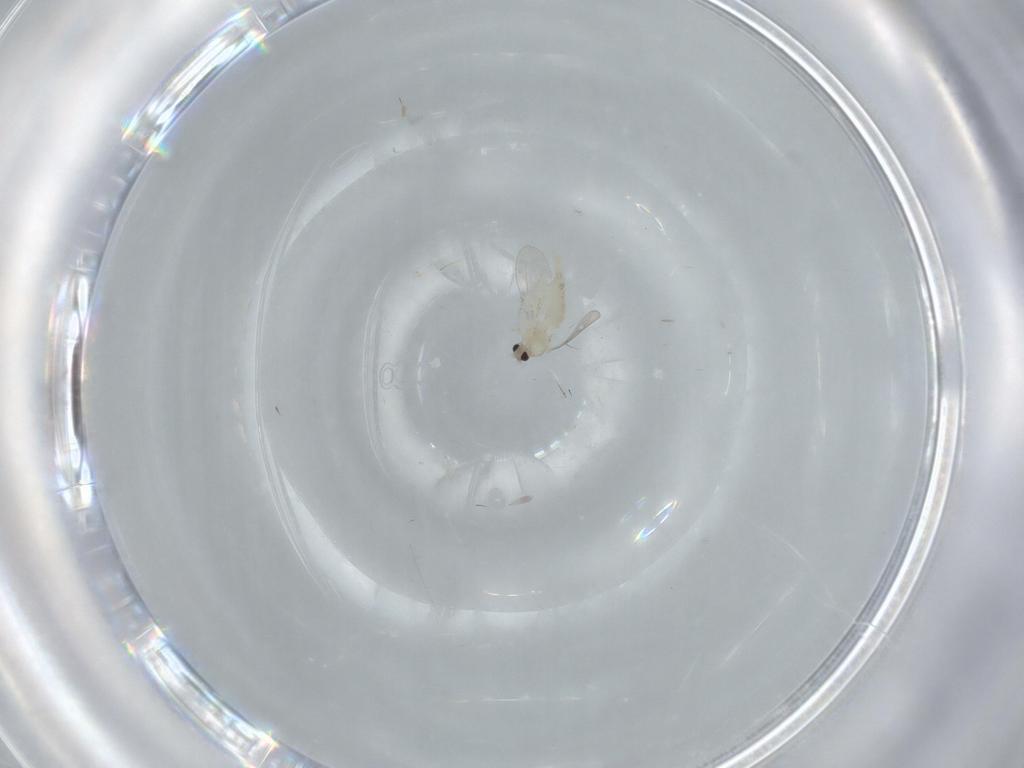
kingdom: Animalia
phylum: Arthropoda
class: Insecta
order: Diptera
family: Cecidomyiidae
